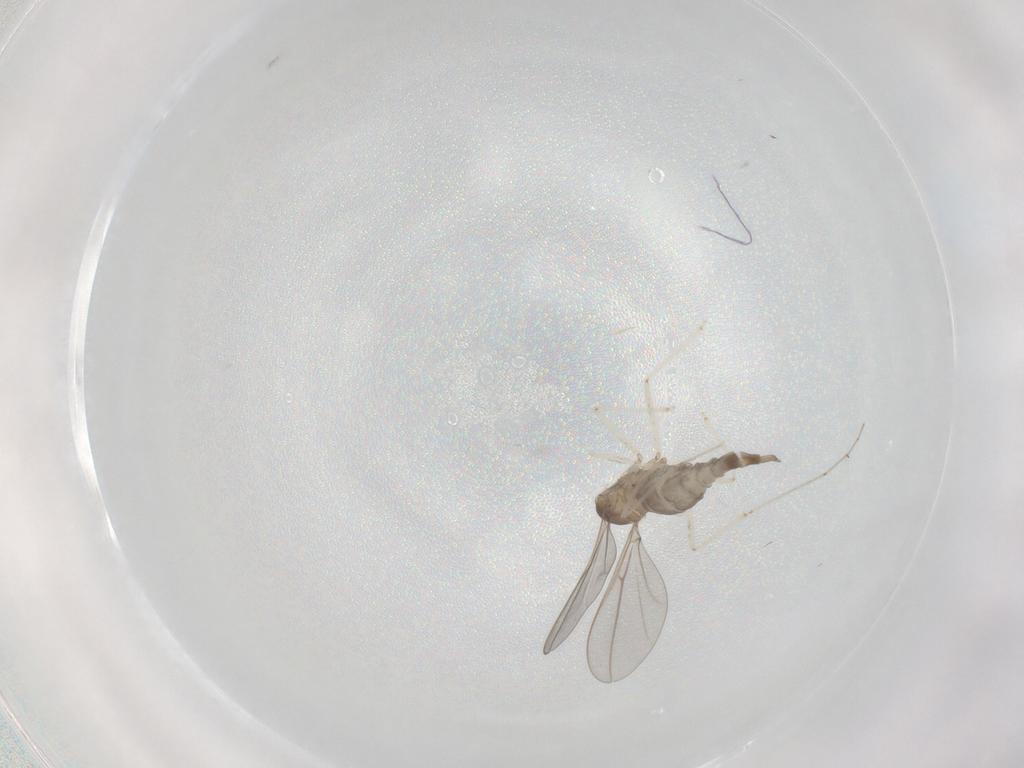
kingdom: Animalia
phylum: Arthropoda
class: Insecta
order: Diptera
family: Cecidomyiidae
